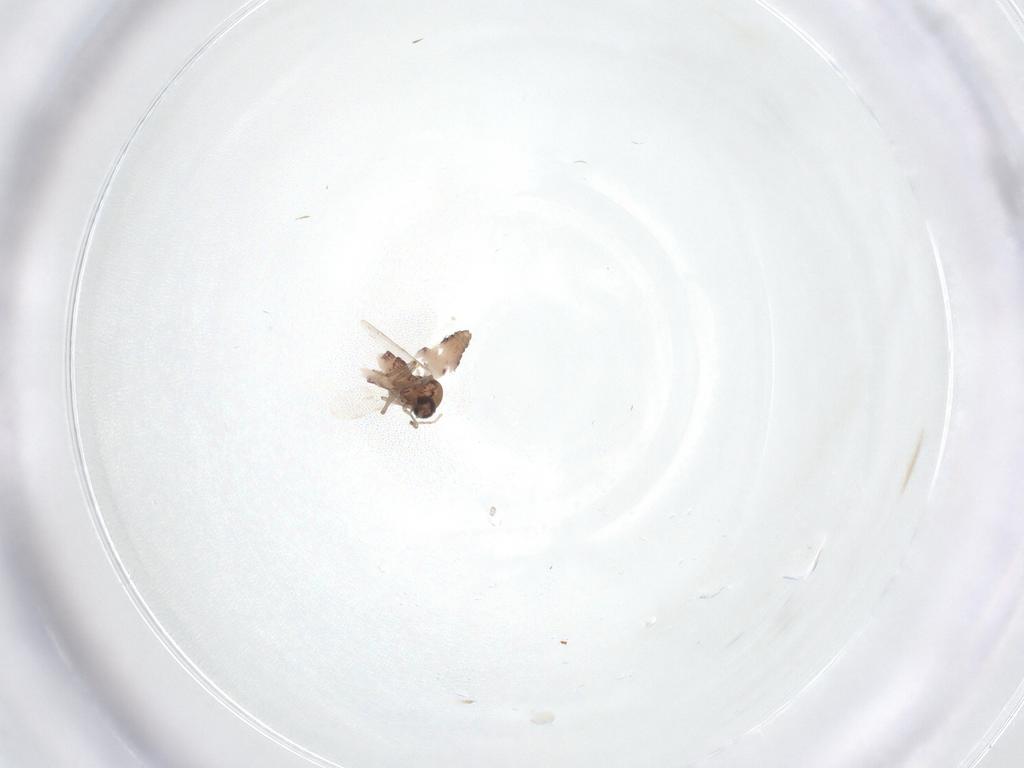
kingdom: Animalia
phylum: Arthropoda
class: Insecta
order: Diptera
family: Ceratopogonidae
